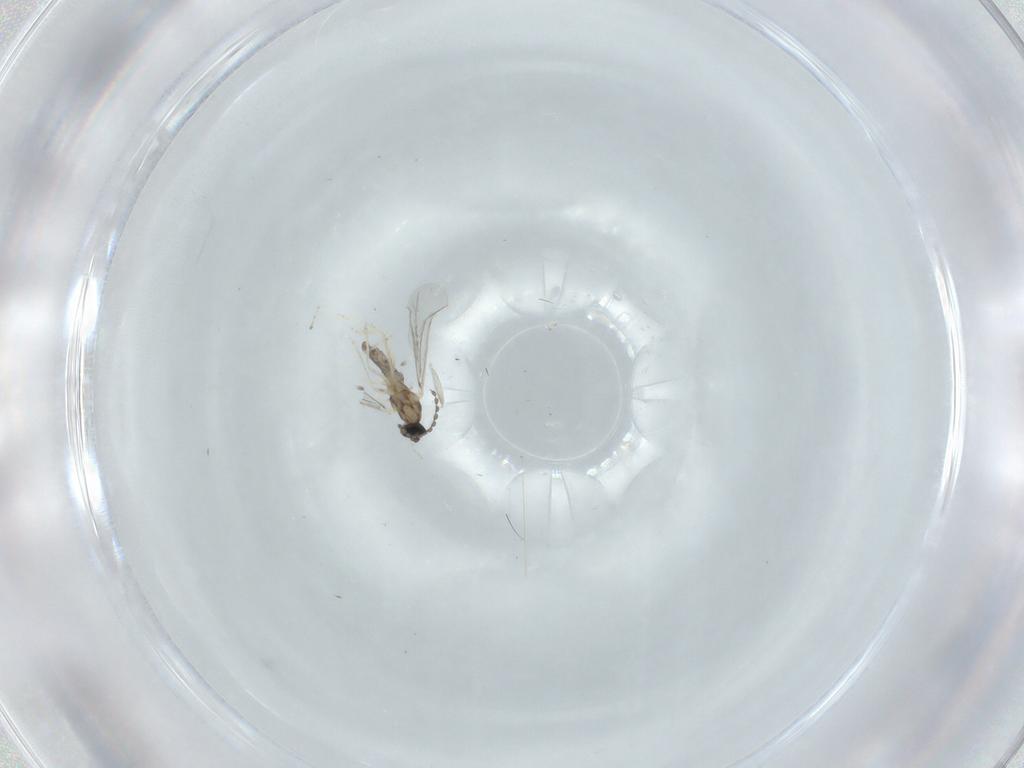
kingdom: Animalia
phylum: Arthropoda
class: Insecta
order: Diptera
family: Cecidomyiidae
